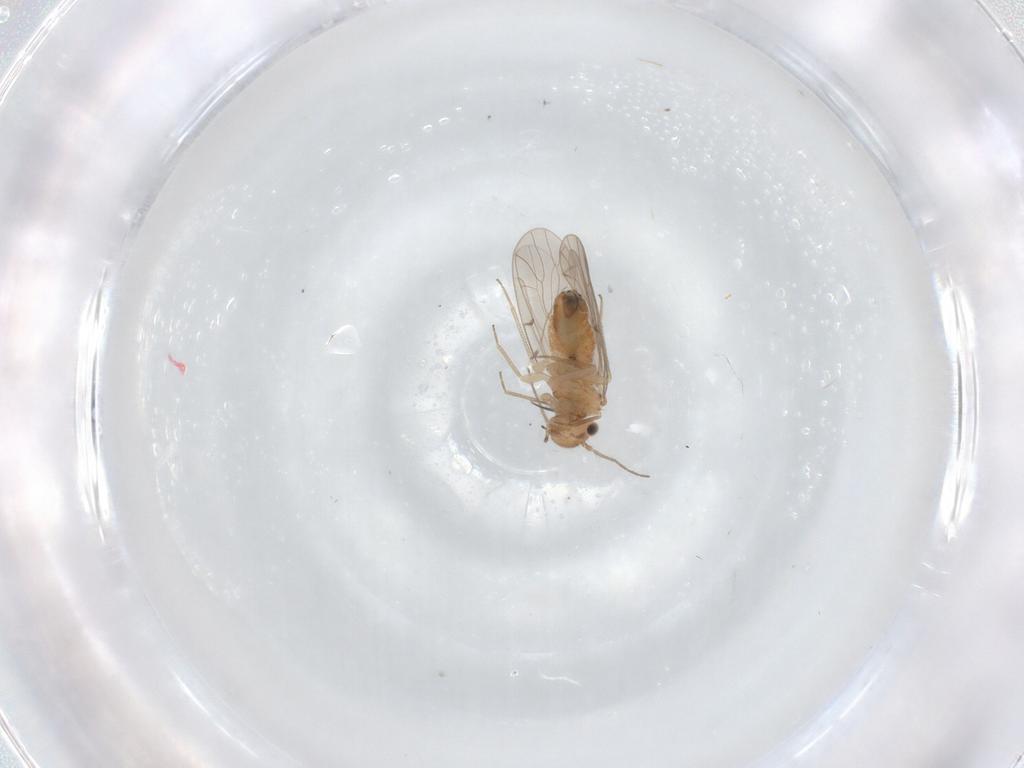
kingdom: Animalia
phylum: Arthropoda
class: Insecta
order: Psocodea
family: Ectopsocidae
